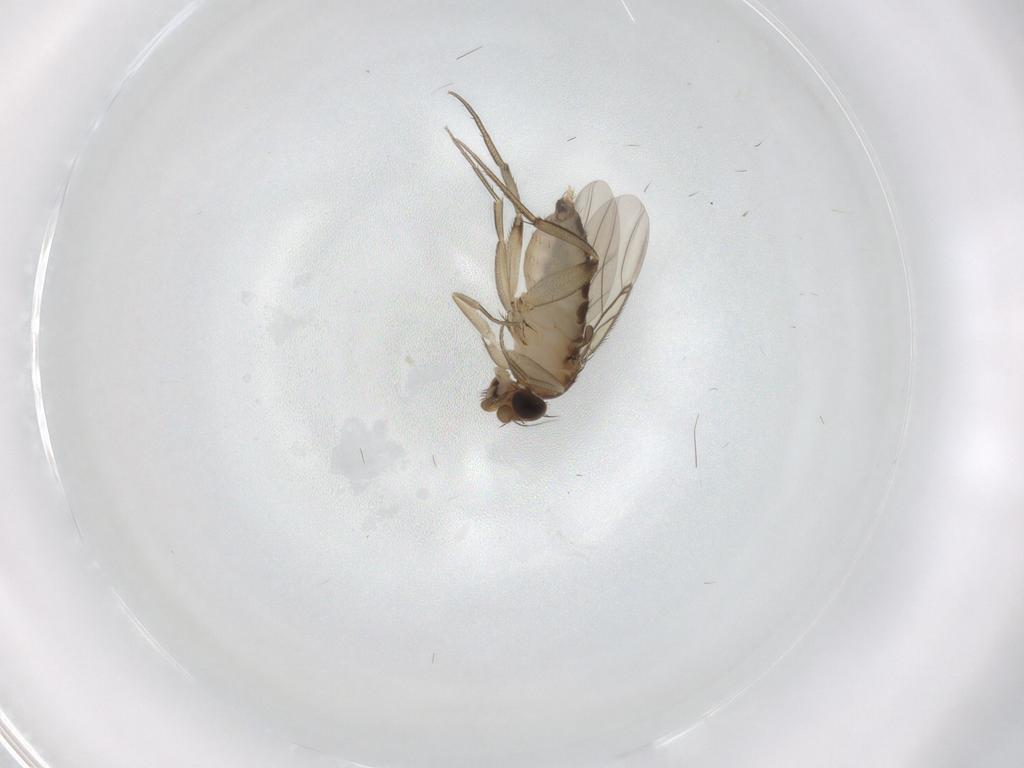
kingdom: Animalia
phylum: Arthropoda
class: Insecta
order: Diptera
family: Phoridae
